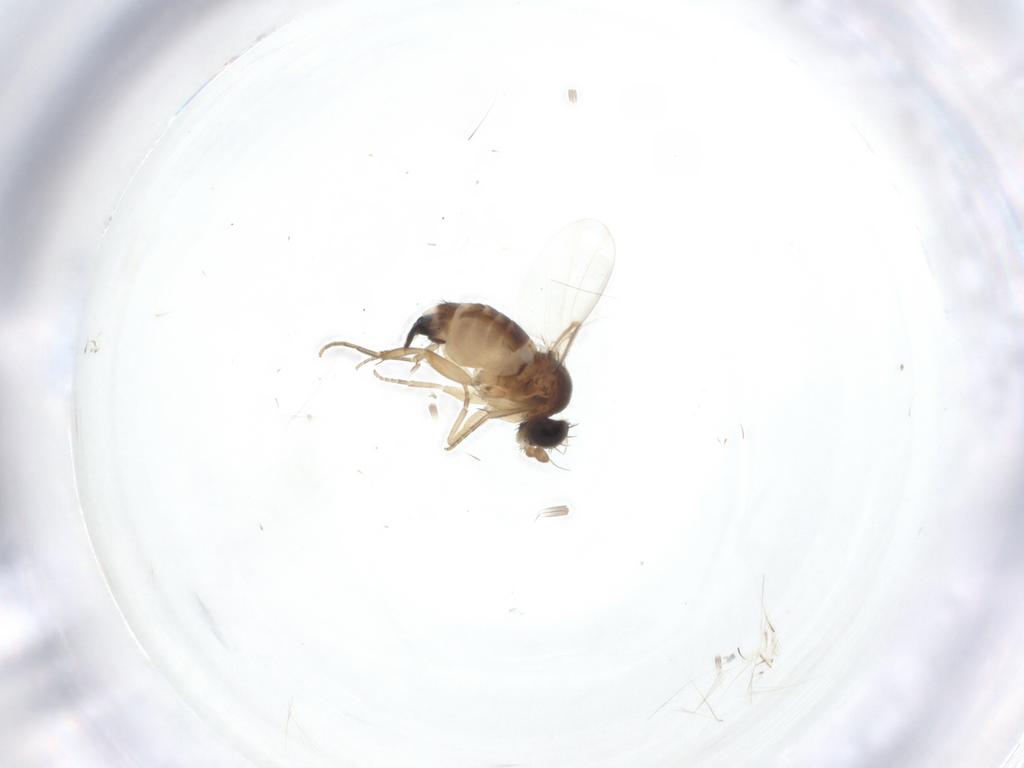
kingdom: Animalia
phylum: Arthropoda
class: Insecta
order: Diptera
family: Phoridae
